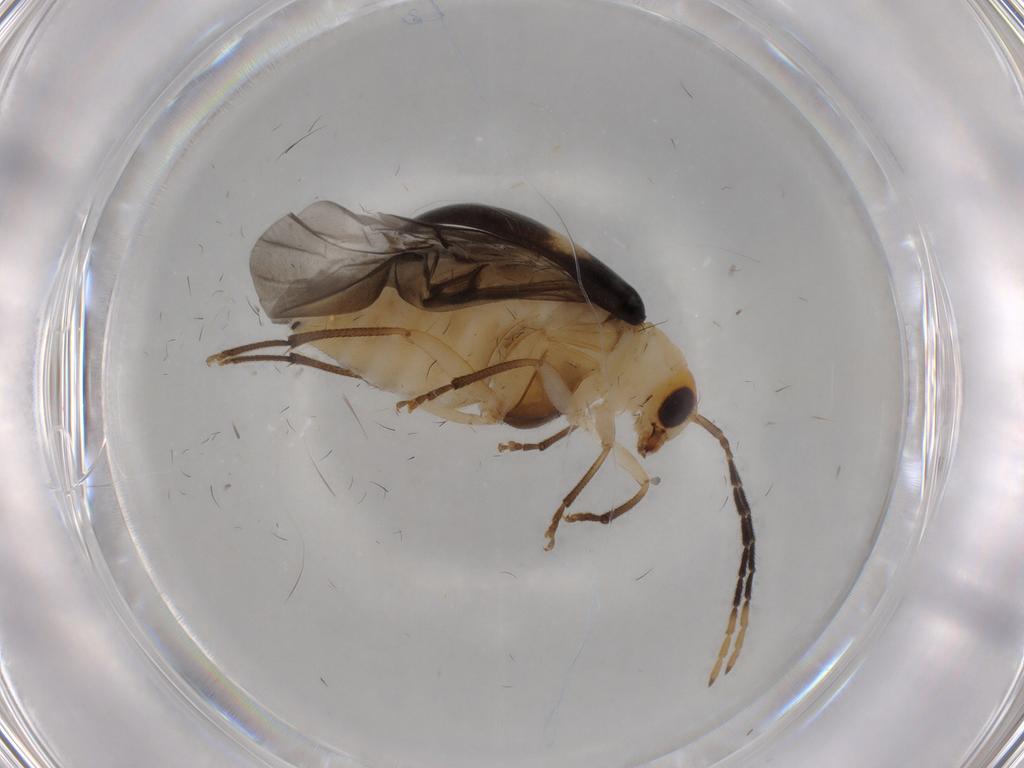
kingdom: Animalia
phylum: Arthropoda
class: Insecta
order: Coleoptera
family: Chrysomelidae
